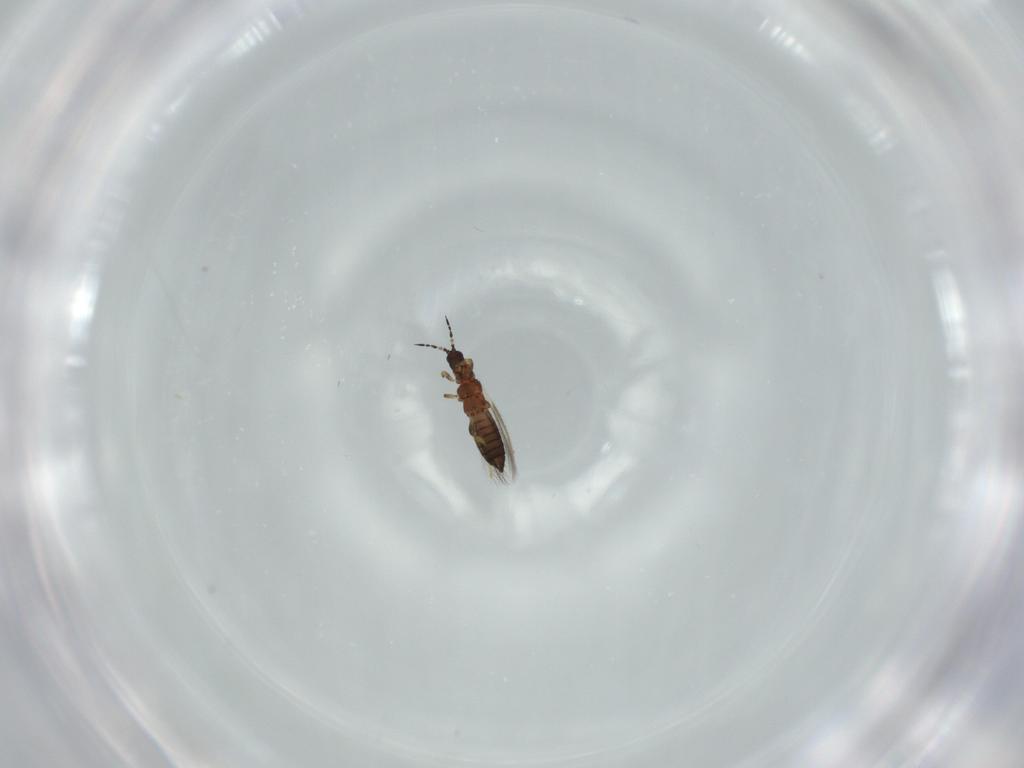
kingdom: Animalia
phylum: Arthropoda
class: Insecta
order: Thysanoptera
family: Thripidae
